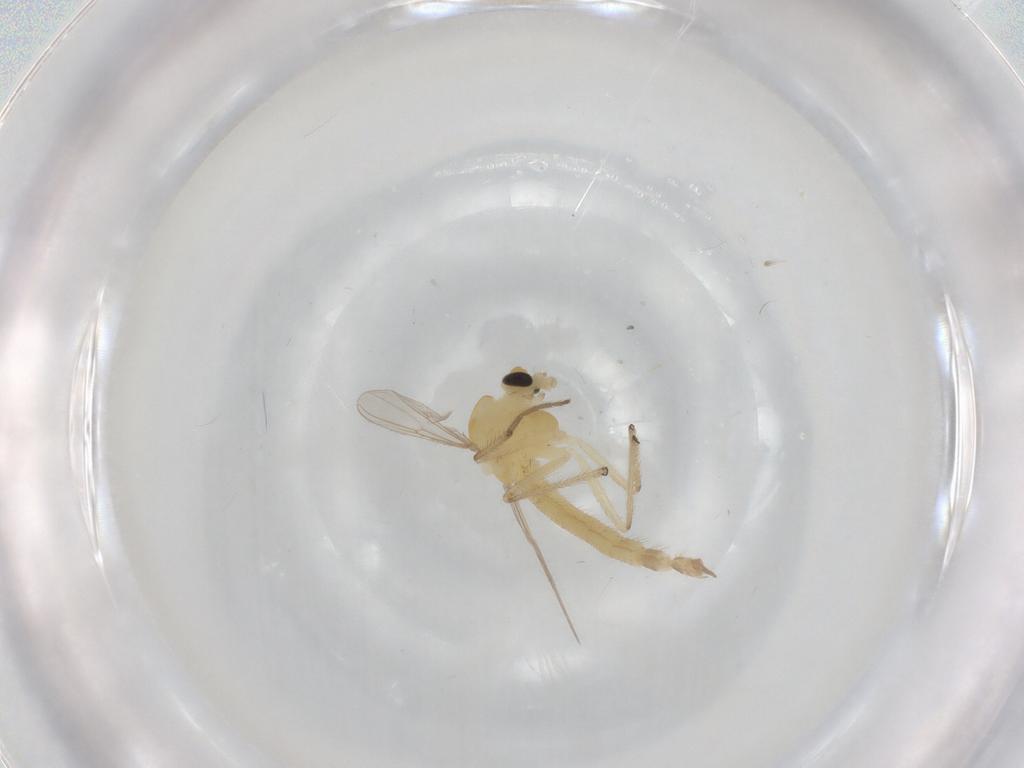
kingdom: Animalia
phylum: Arthropoda
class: Insecta
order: Diptera
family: Chironomidae
